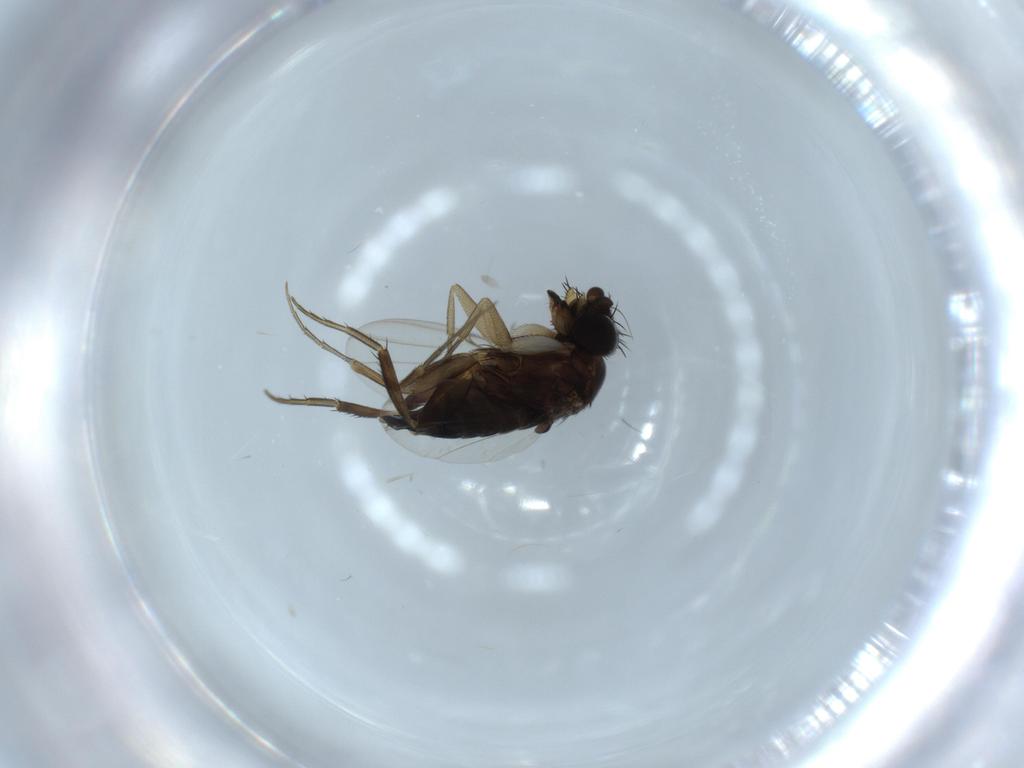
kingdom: Animalia
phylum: Arthropoda
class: Insecta
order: Diptera
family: Phoridae
